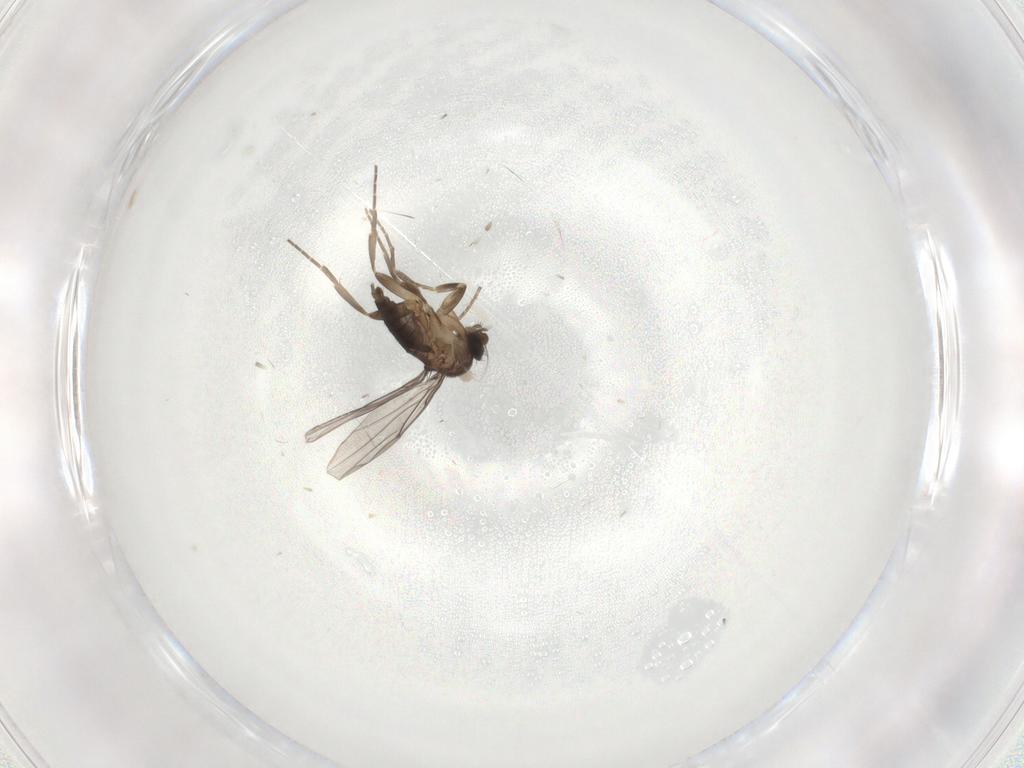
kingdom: Animalia
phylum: Arthropoda
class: Insecta
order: Diptera
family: Phoridae
